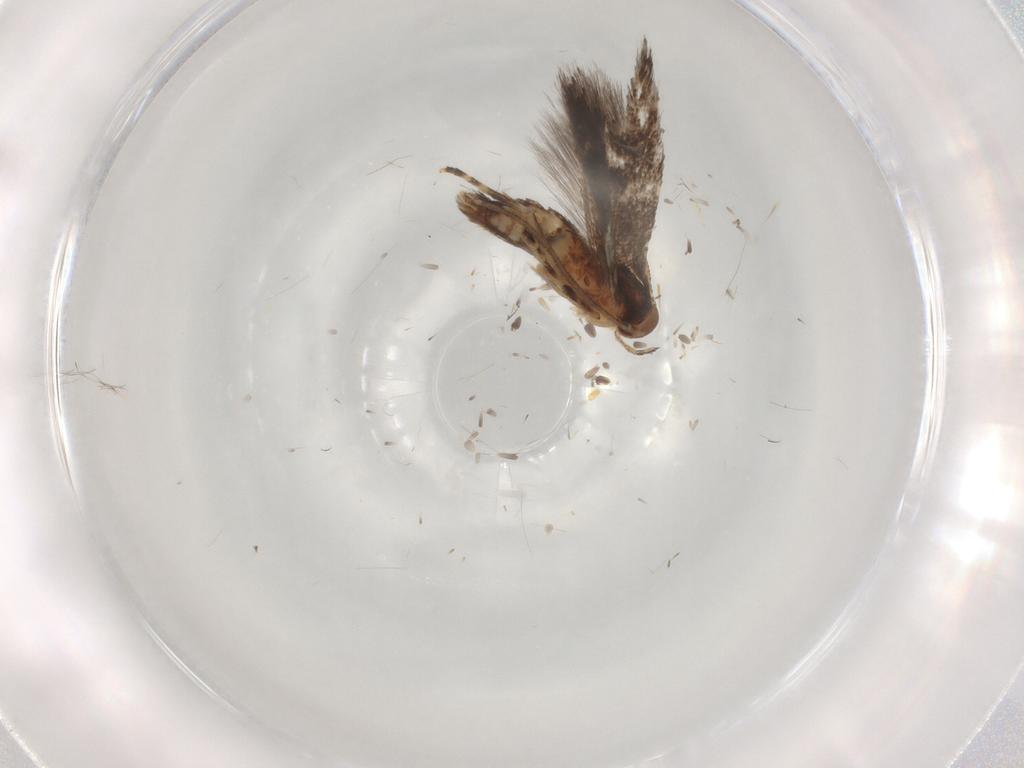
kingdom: Animalia
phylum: Arthropoda
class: Insecta
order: Lepidoptera
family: Elachistidae
